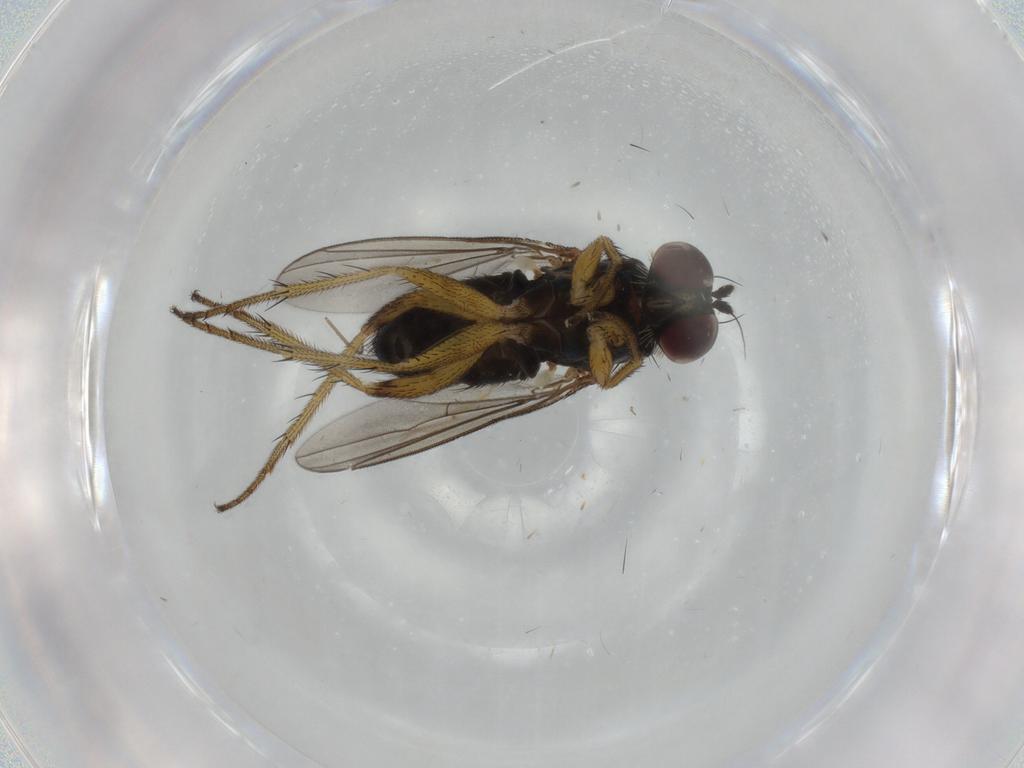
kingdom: Animalia
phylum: Arthropoda
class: Insecta
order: Diptera
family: Dolichopodidae
